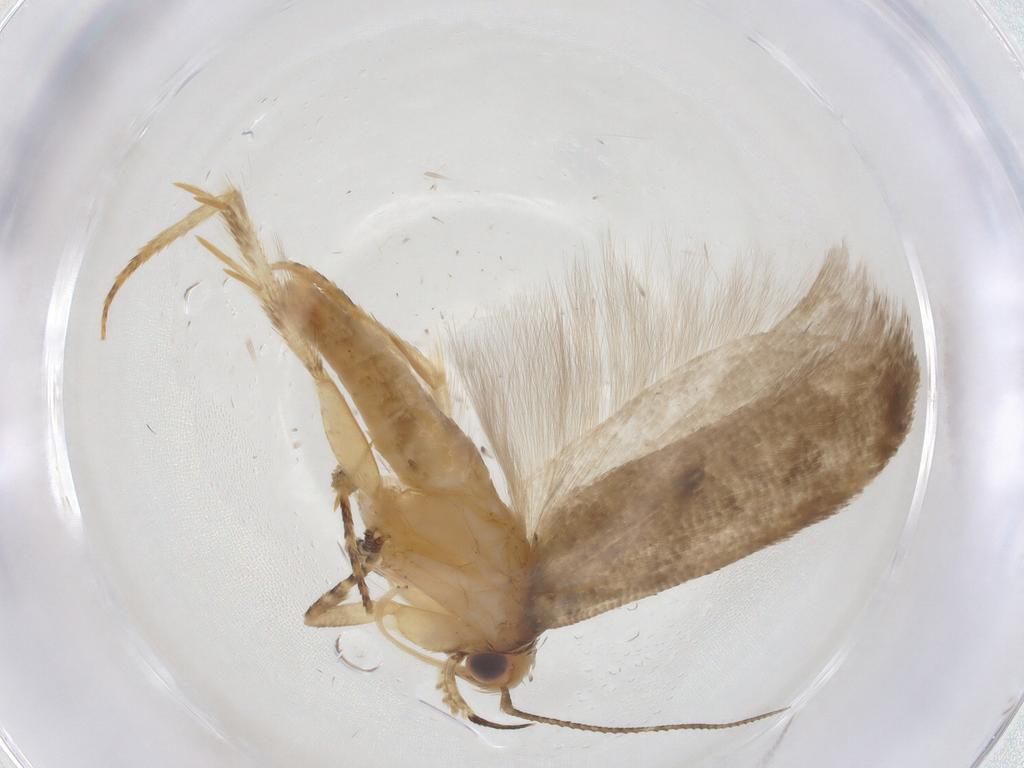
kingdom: Animalia
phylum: Arthropoda
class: Insecta
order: Lepidoptera
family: Gelechiidae
